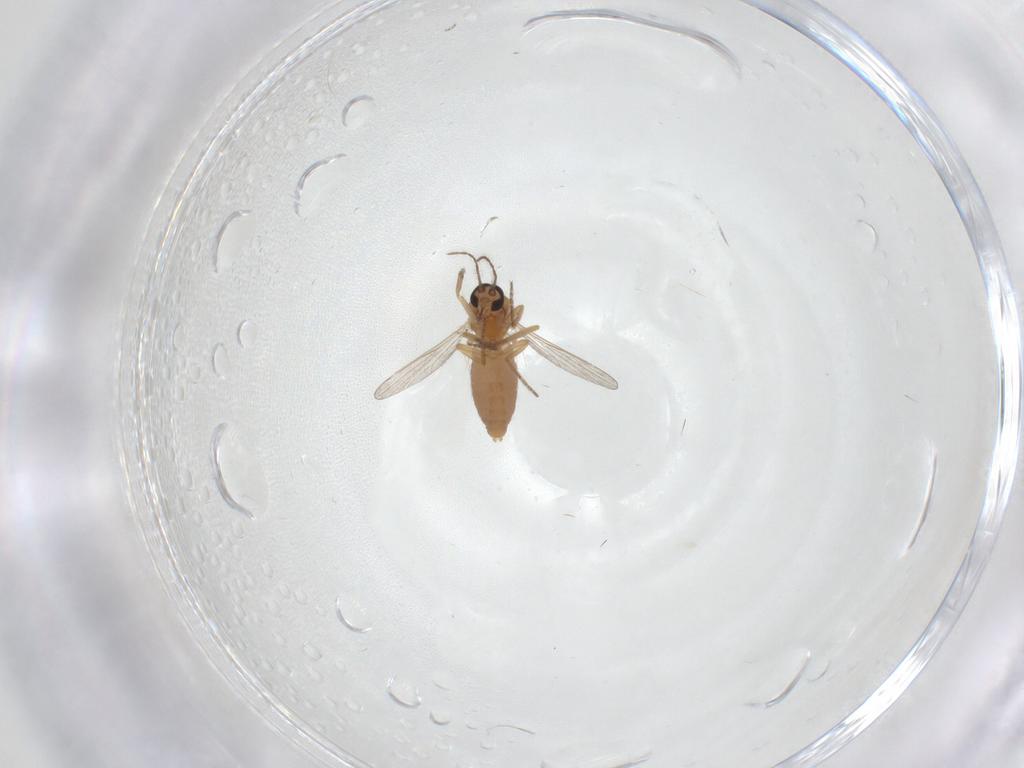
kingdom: Animalia
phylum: Arthropoda
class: Insecta
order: Diptera
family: Ceratopogonidae
